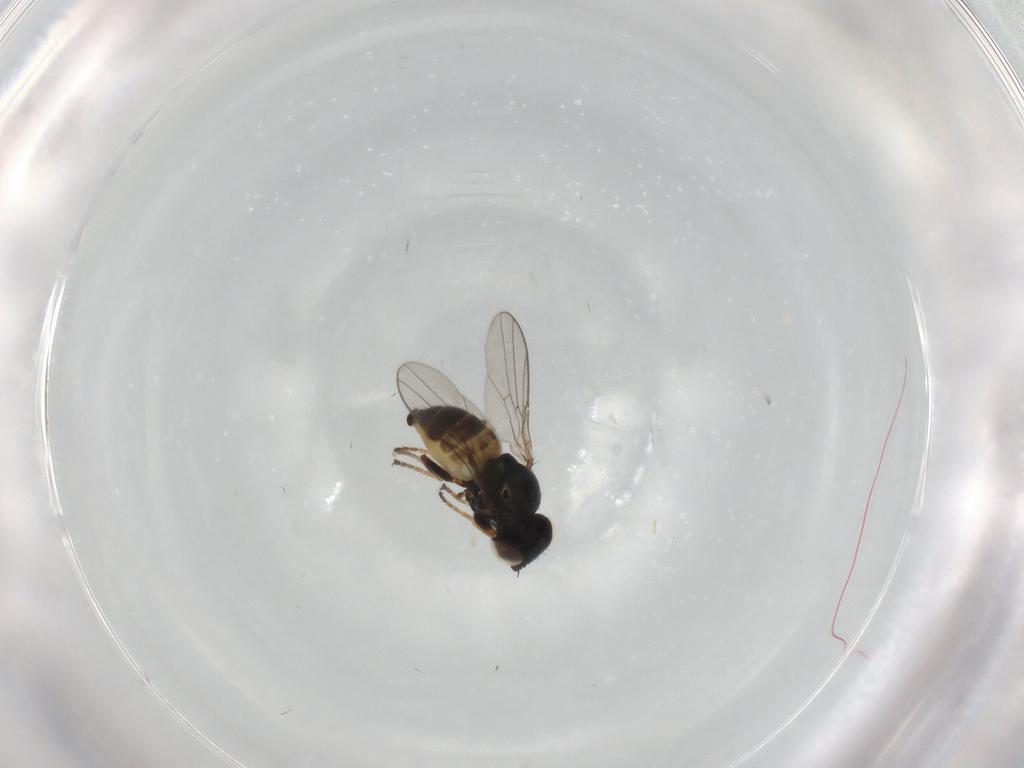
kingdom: Animalia
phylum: Arthropoda
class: Insecta
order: Diptera
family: Chloropidae
